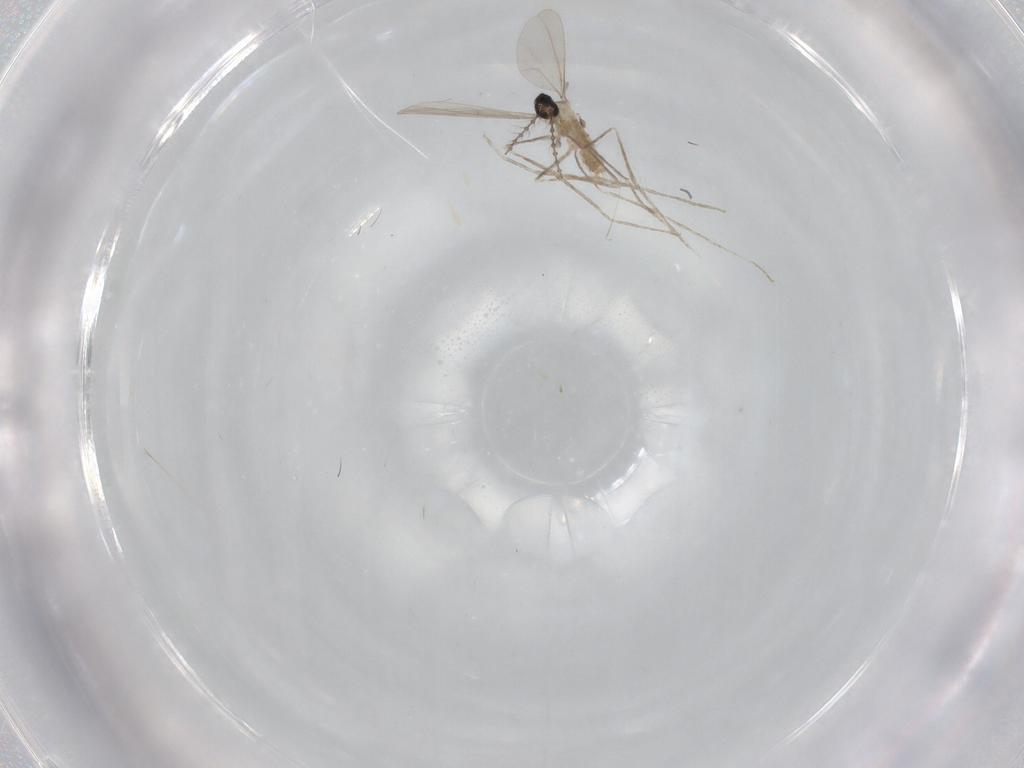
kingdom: Animalia
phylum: Arthropoda
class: Insecta
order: Diptera
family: Cecidomyiidae
